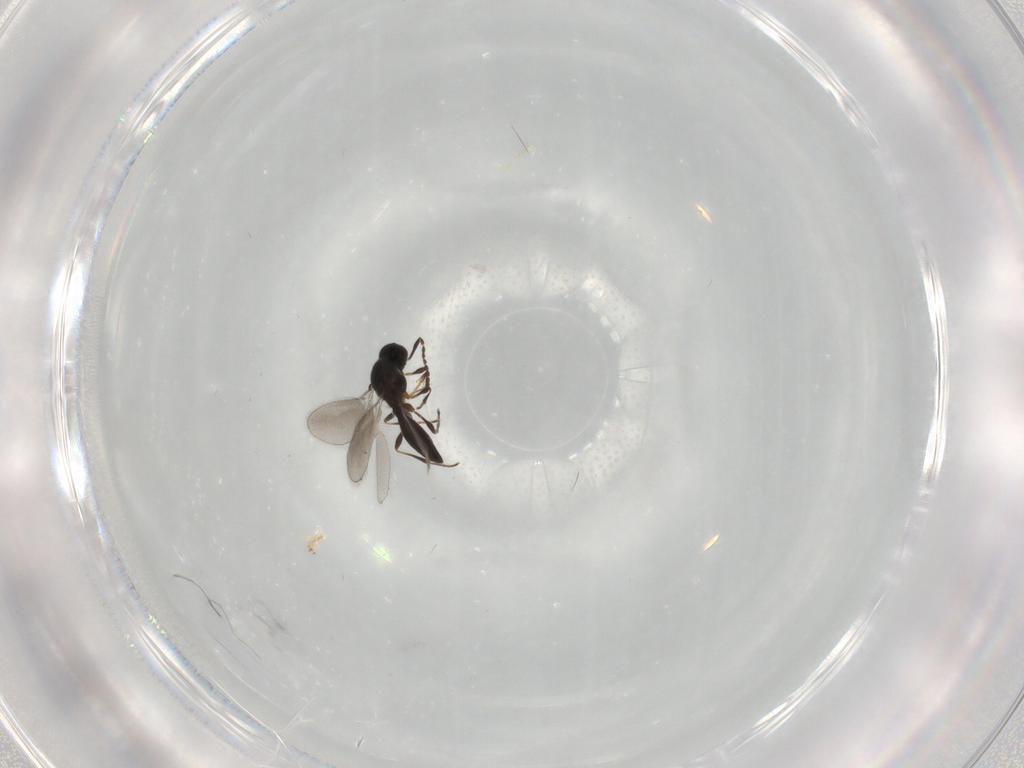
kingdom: Animalia
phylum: Arthropoda
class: Insecta
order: Hymenoptera
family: Platygastridae
